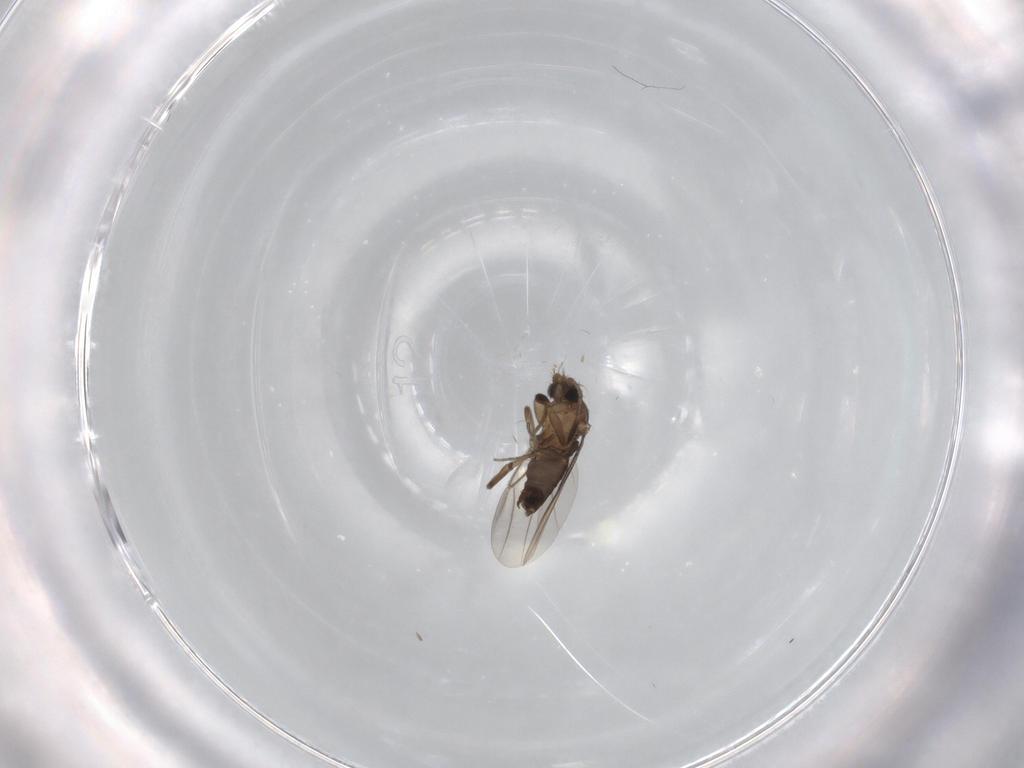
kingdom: Animalia
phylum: Arthropoda
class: Insecta
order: Diptera
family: Phoridae
